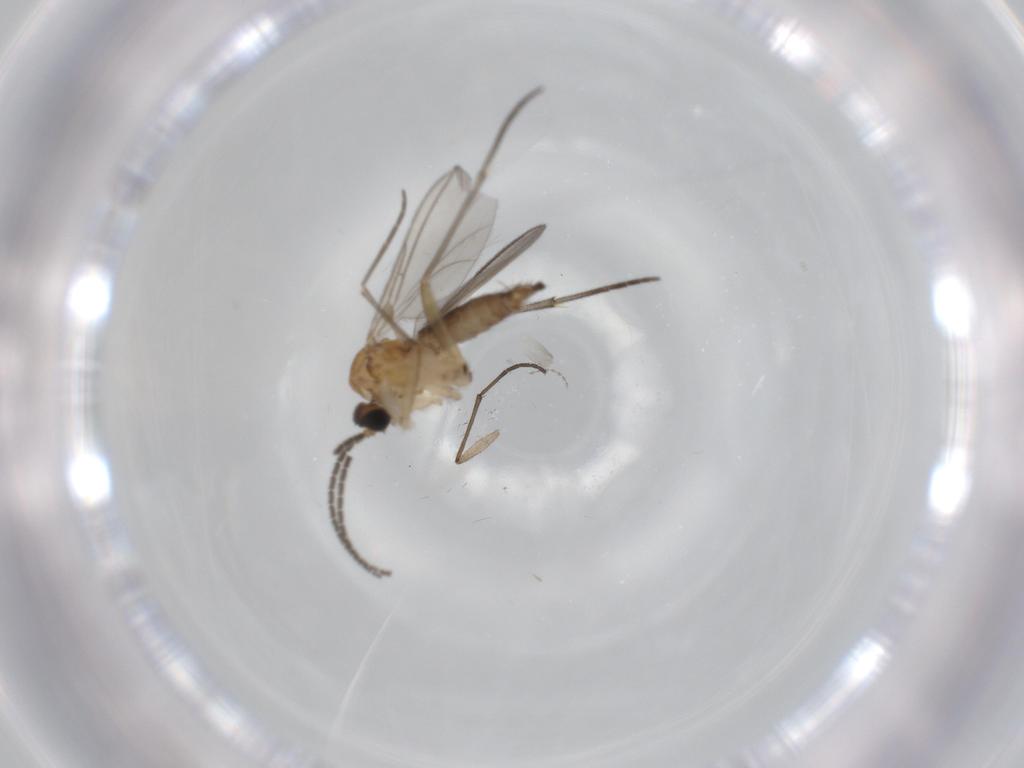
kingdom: Animalia
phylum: Arthropoda
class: Insecta
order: Diptera
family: Sciaridae
